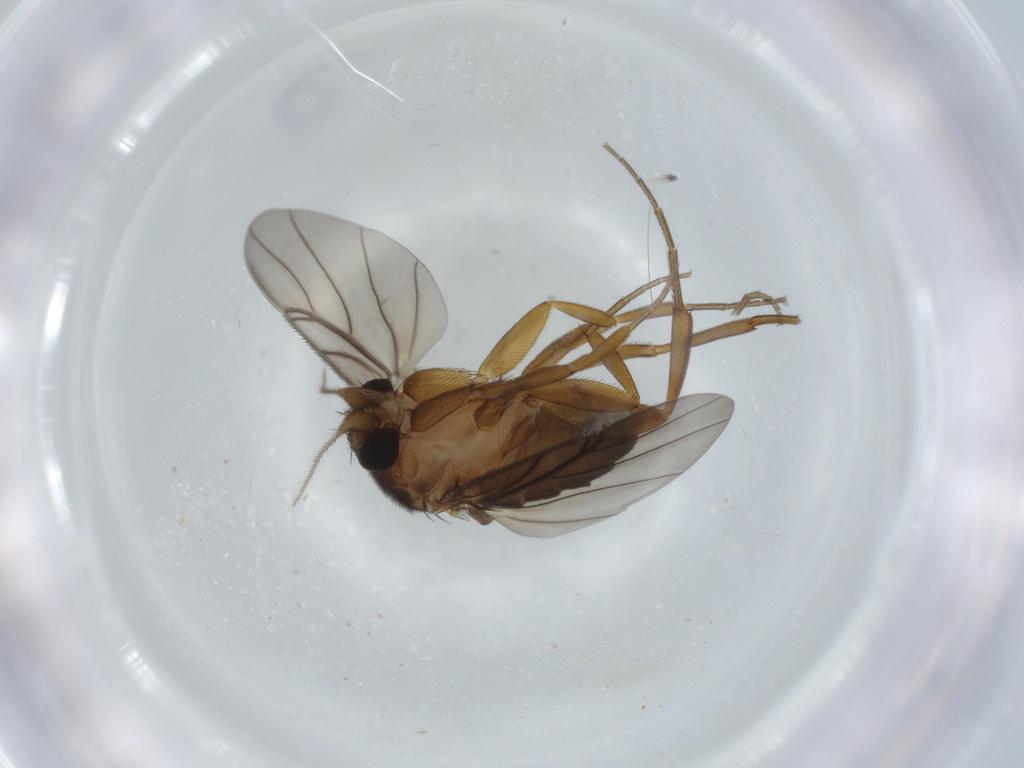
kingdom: Animalia
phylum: Arthropoda
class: Insecta
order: Diptera
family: Phoridae
